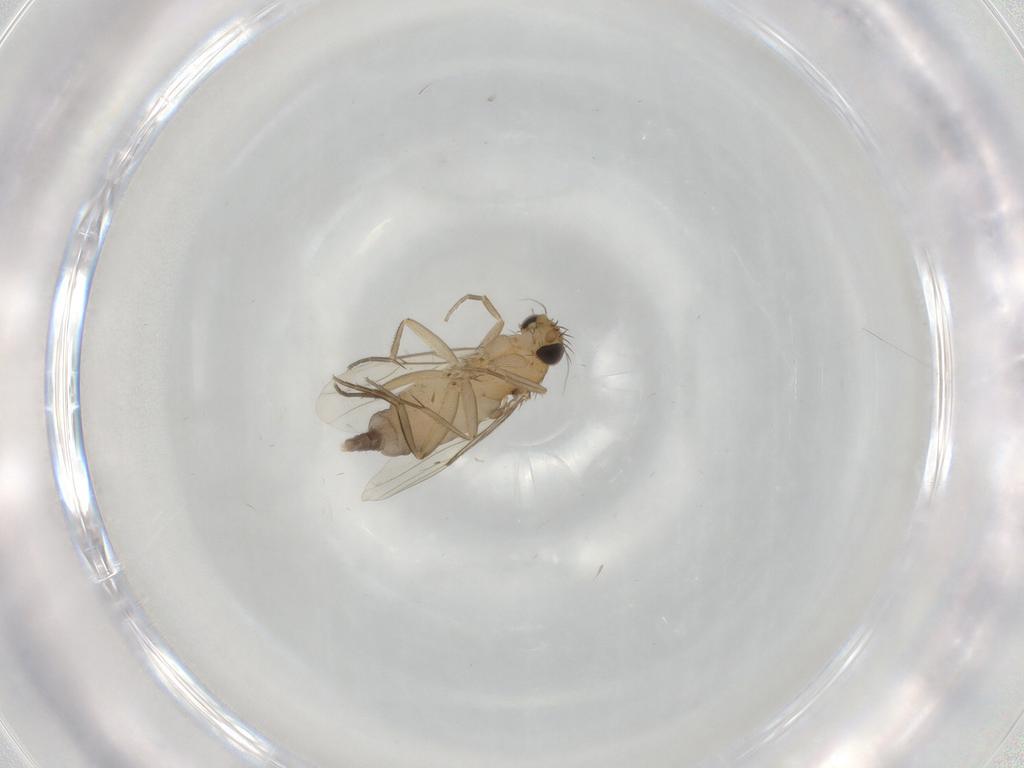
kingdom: Animalia
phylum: Arthropoda
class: Insecta
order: Diptera
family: Phoridae
